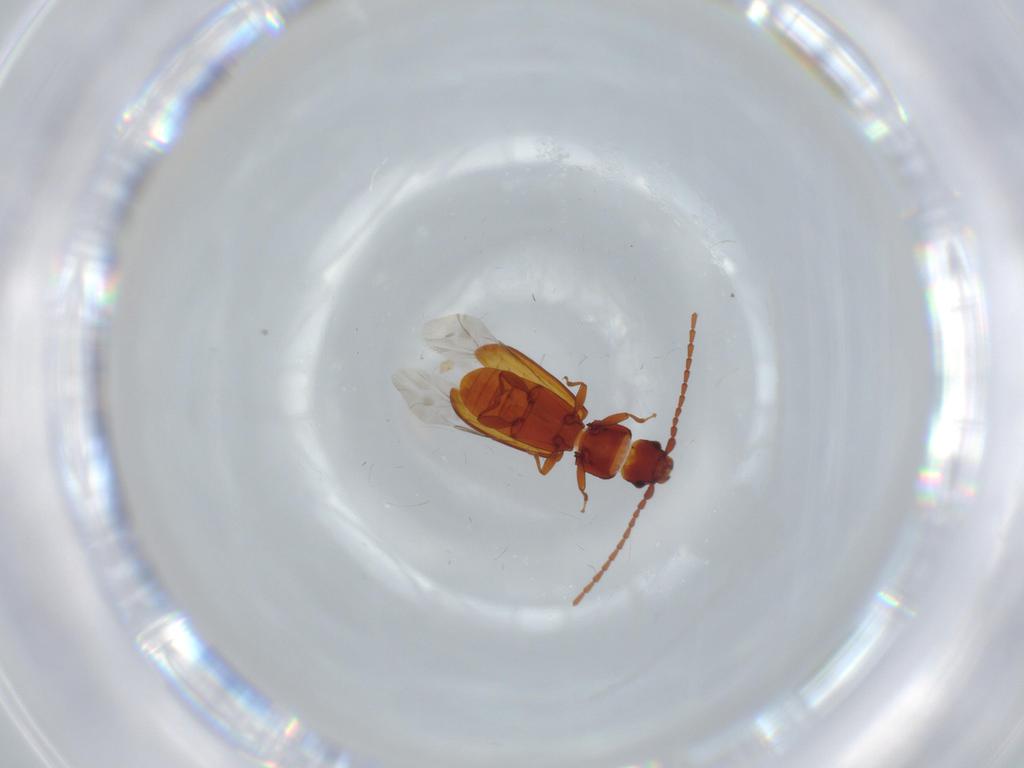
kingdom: Animalia
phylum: Arthropoda
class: Insecta
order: Coleoptera
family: Laemophloeidae
